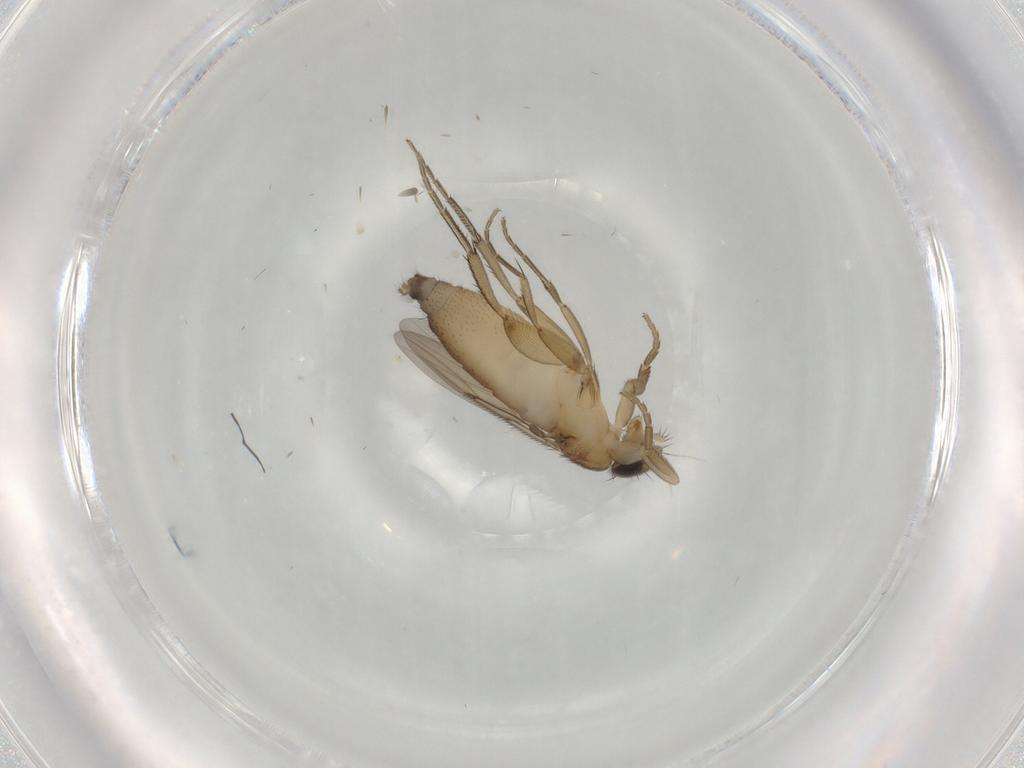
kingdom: Animalia
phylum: Arthropoda
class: Insecta
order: Diptera
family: Phoridae
